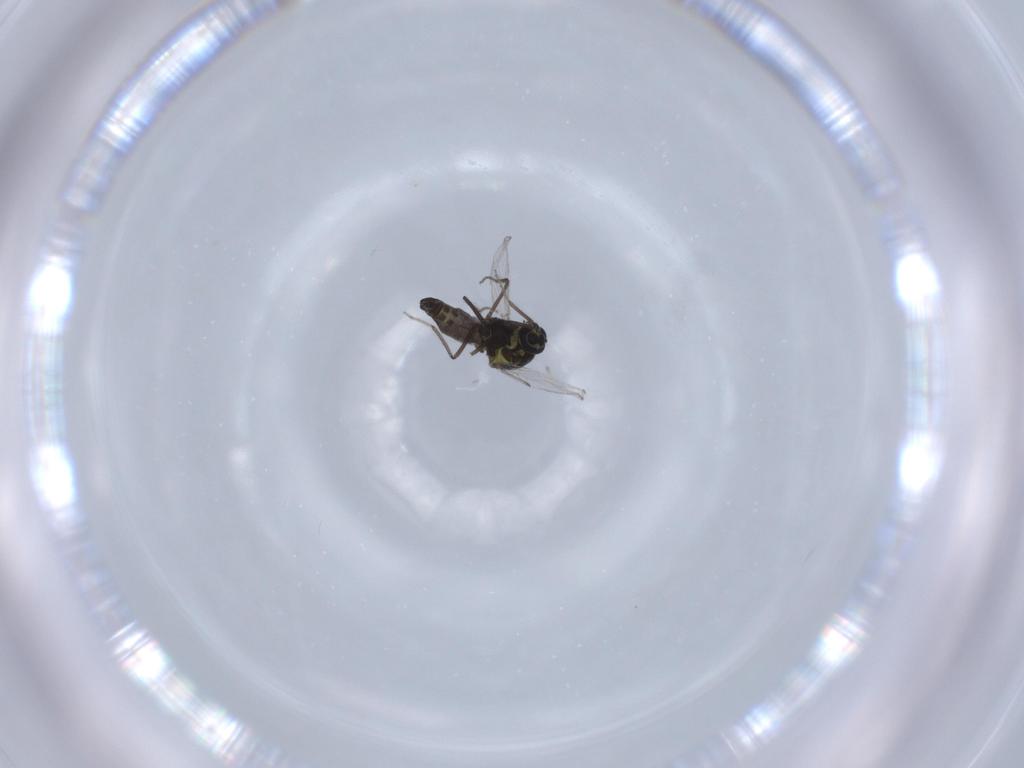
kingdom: Animalia
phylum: Arthropoda
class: Insecta
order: Diptera
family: Ceratopogonidae
